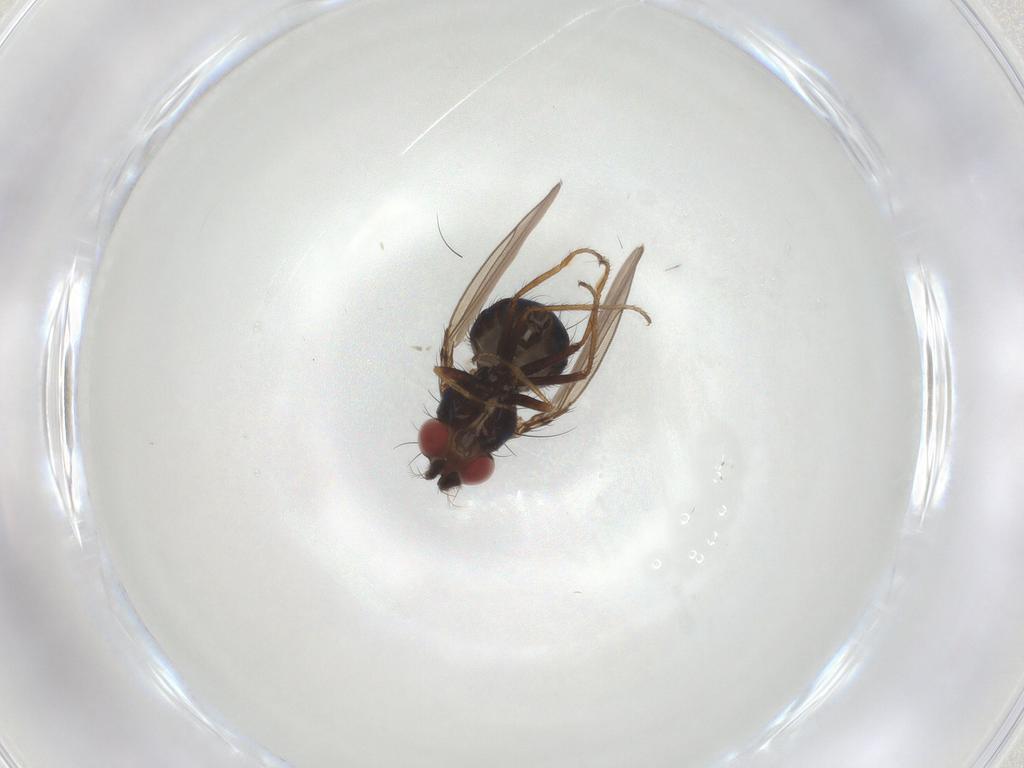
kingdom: Animalia
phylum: Arthropoda
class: Insecta
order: Diptera
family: Ephydridae
